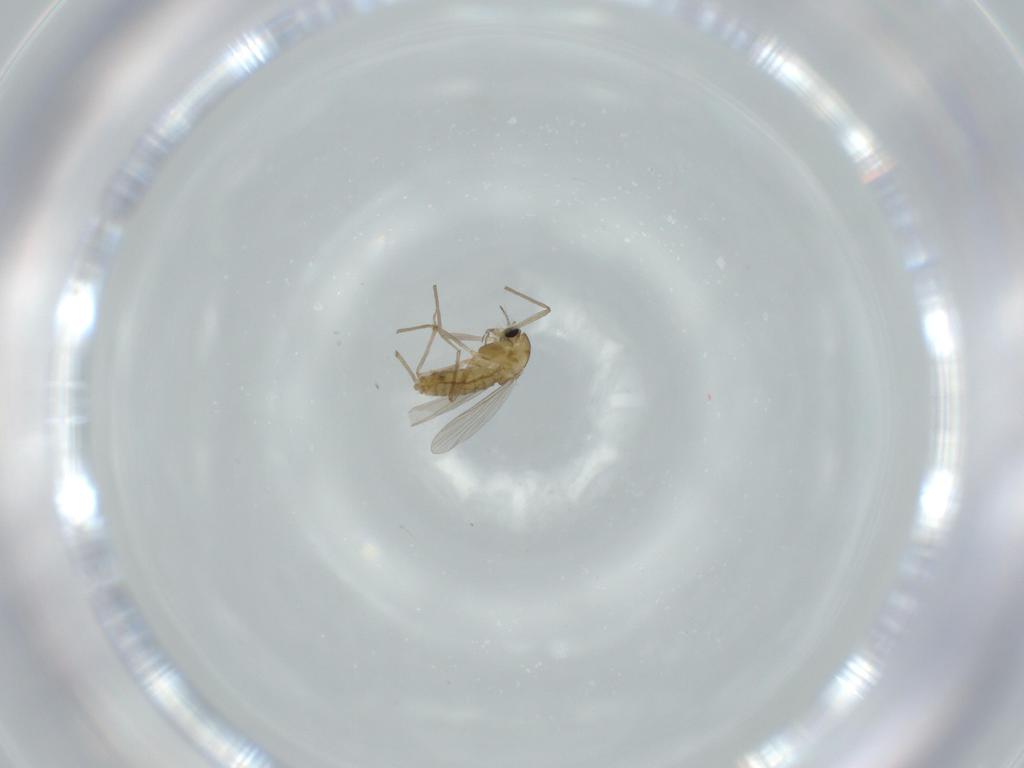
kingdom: Animalia
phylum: Arthropoda
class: Insecta
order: Diptera
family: Chironomidae
